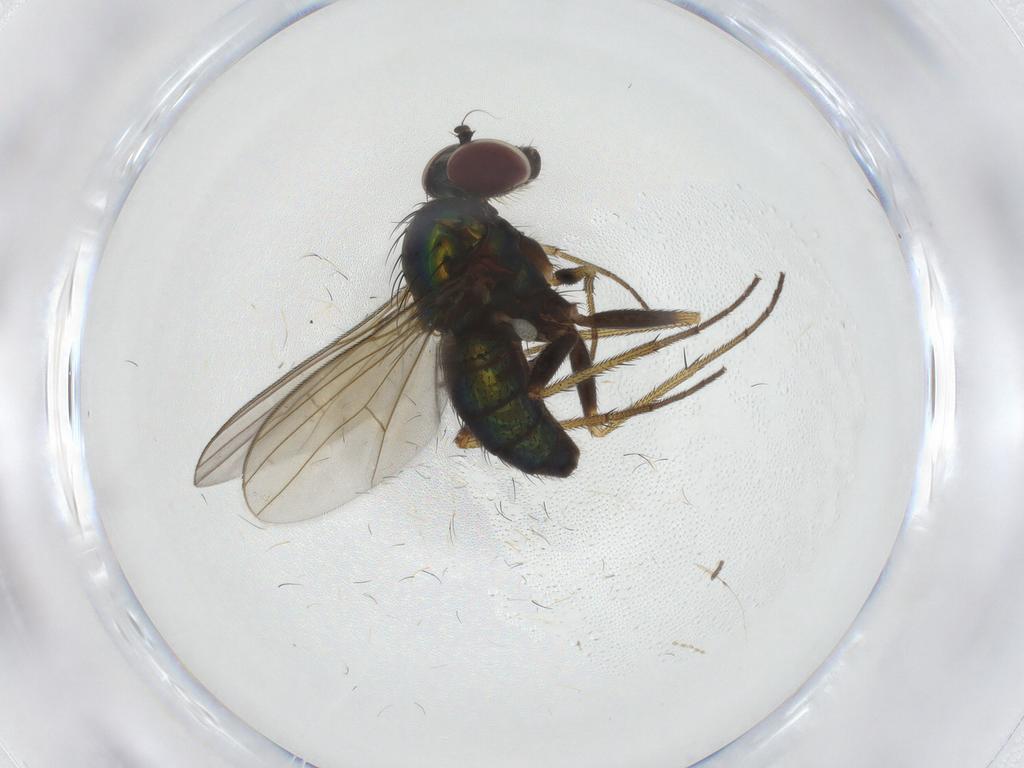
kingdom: Animalia
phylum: Arthropoda
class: Insecta
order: Diptera
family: Dolichopodidae
